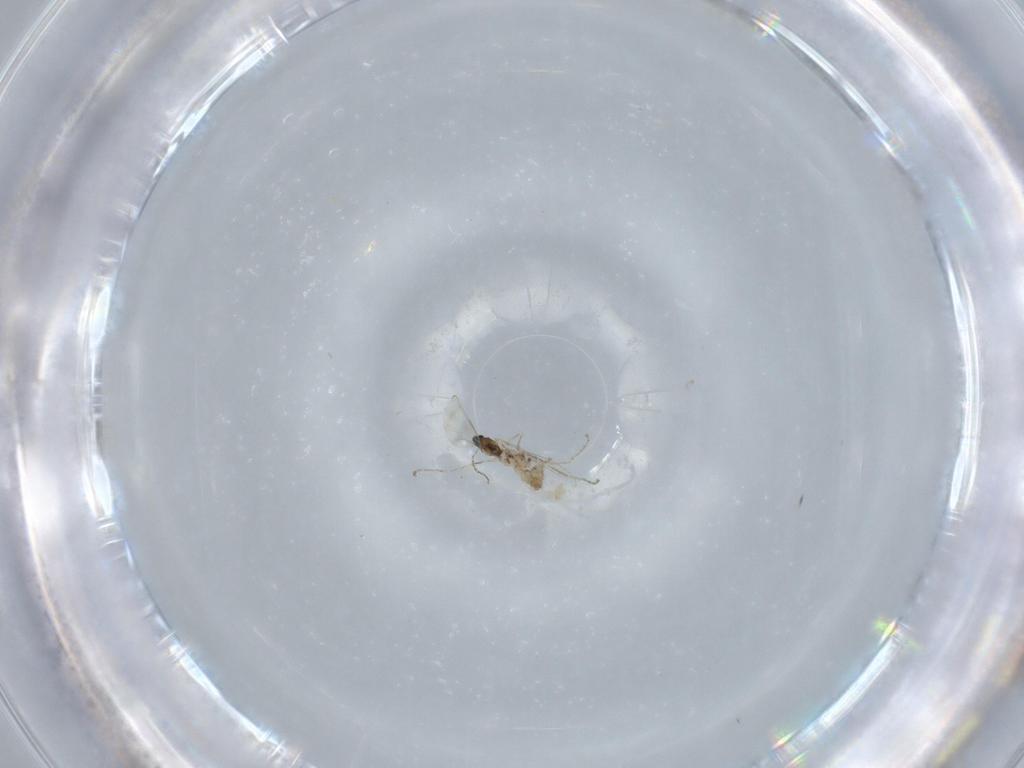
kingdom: Animalia
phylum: Arthropoda
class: Insecta
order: Diptera
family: Cecidomyiidae
